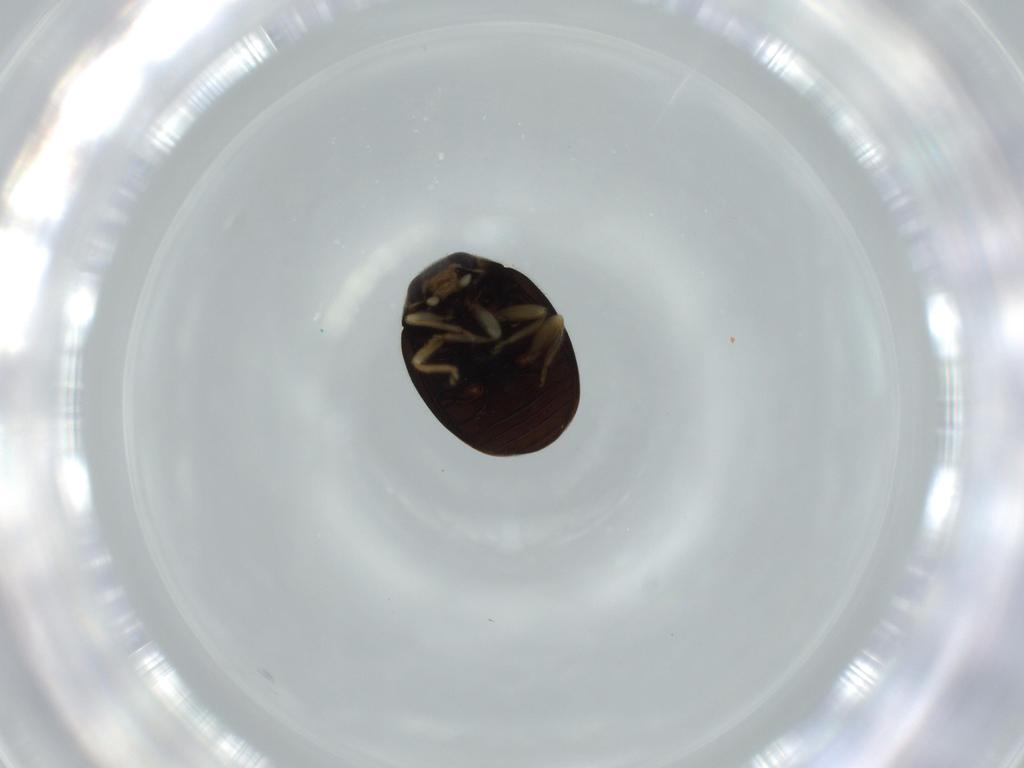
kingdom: Animalia
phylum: Arthropoda
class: Insecta
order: Coleoptera
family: Coccinellidae
